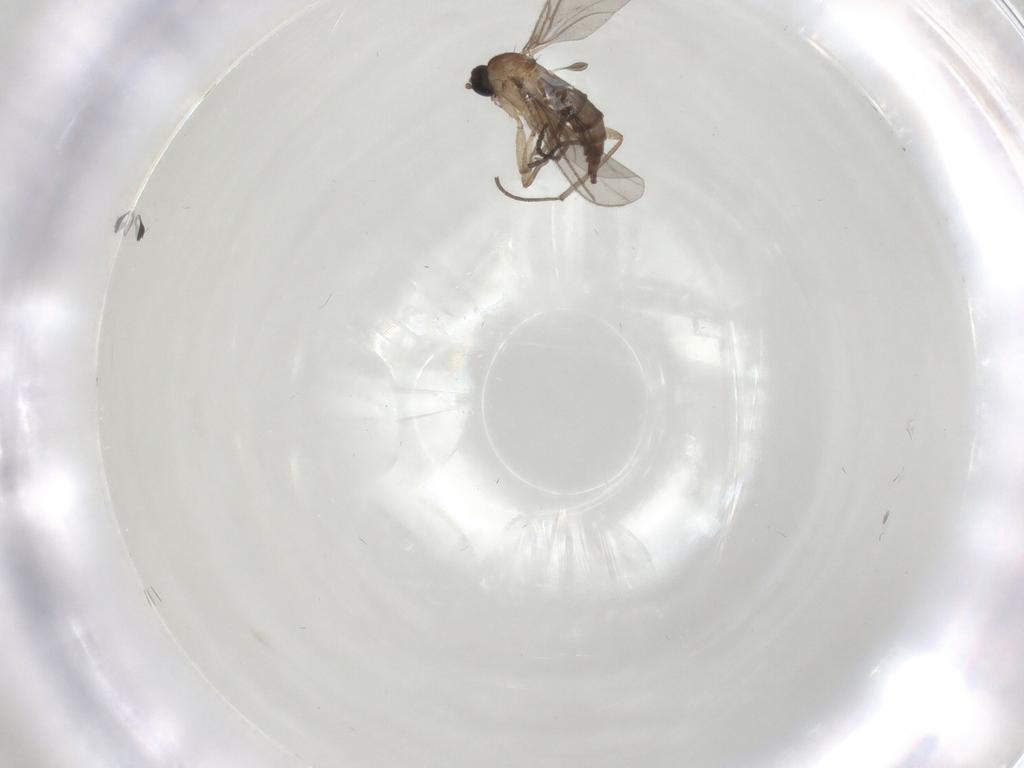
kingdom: Animalia
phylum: Arthropoda
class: Insecta
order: Diptera
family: Sciaridae
